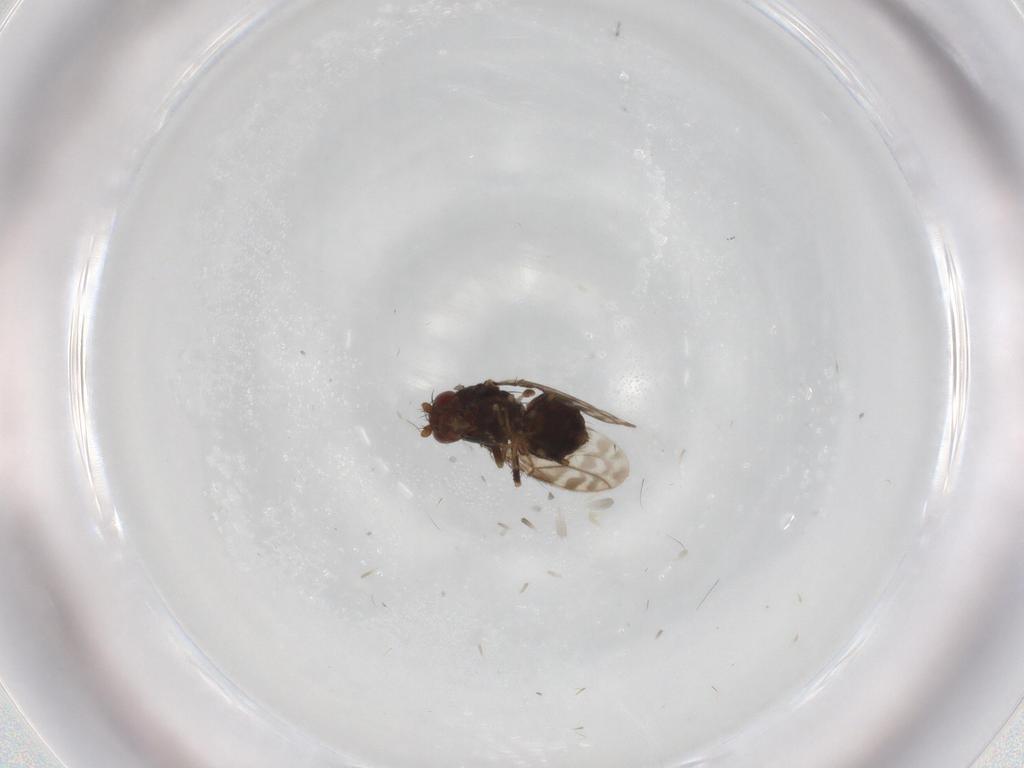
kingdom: Animalia
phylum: Arthropoda
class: Insecta
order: Diptera
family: Sphaeroceridae
